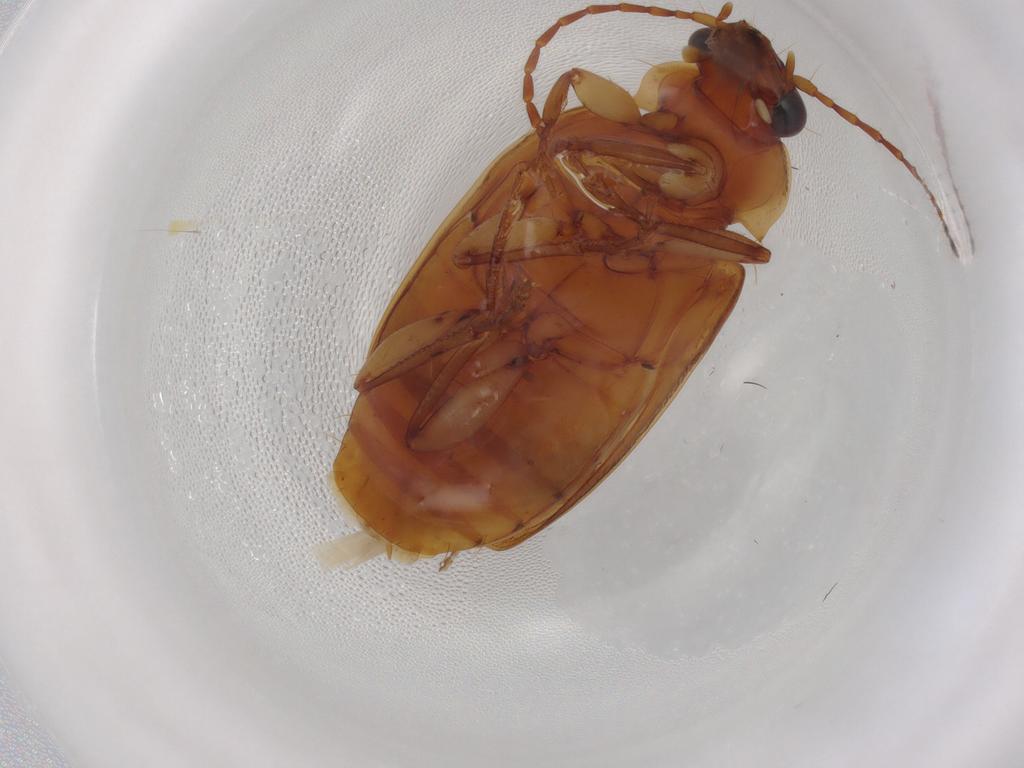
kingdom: Animalia
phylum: Arthropoda
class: Insecta
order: Coleoptera
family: Carabidae
